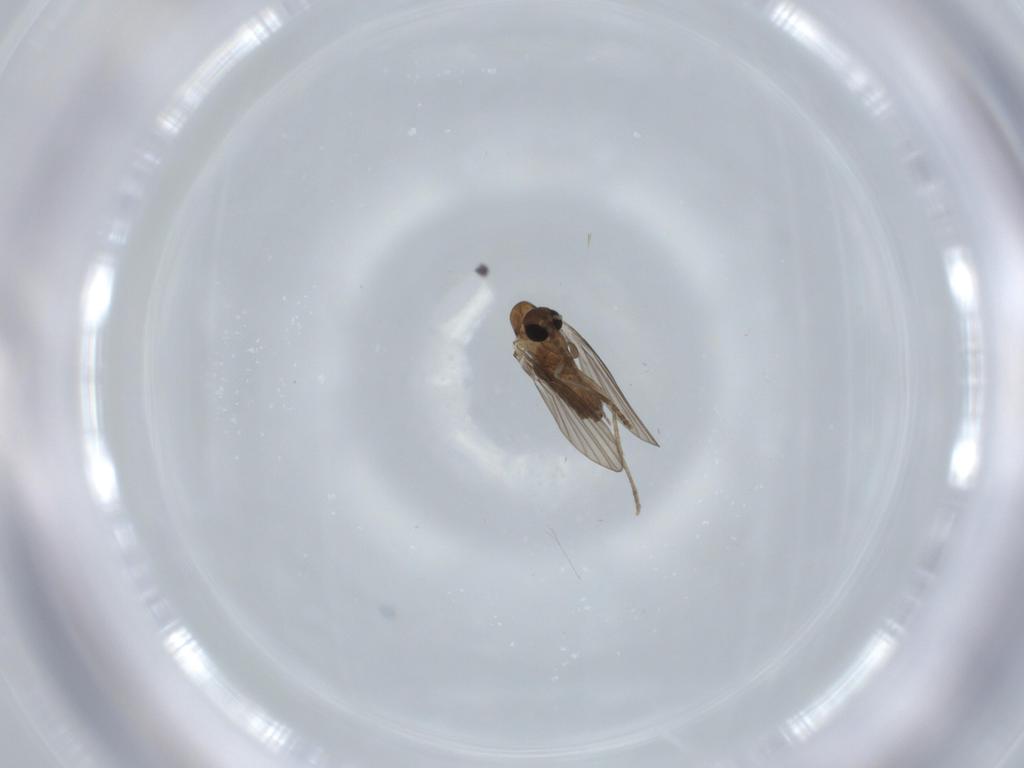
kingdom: Animalia
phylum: Arthropoda
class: Insecta
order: Diptera
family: Psychodidae
